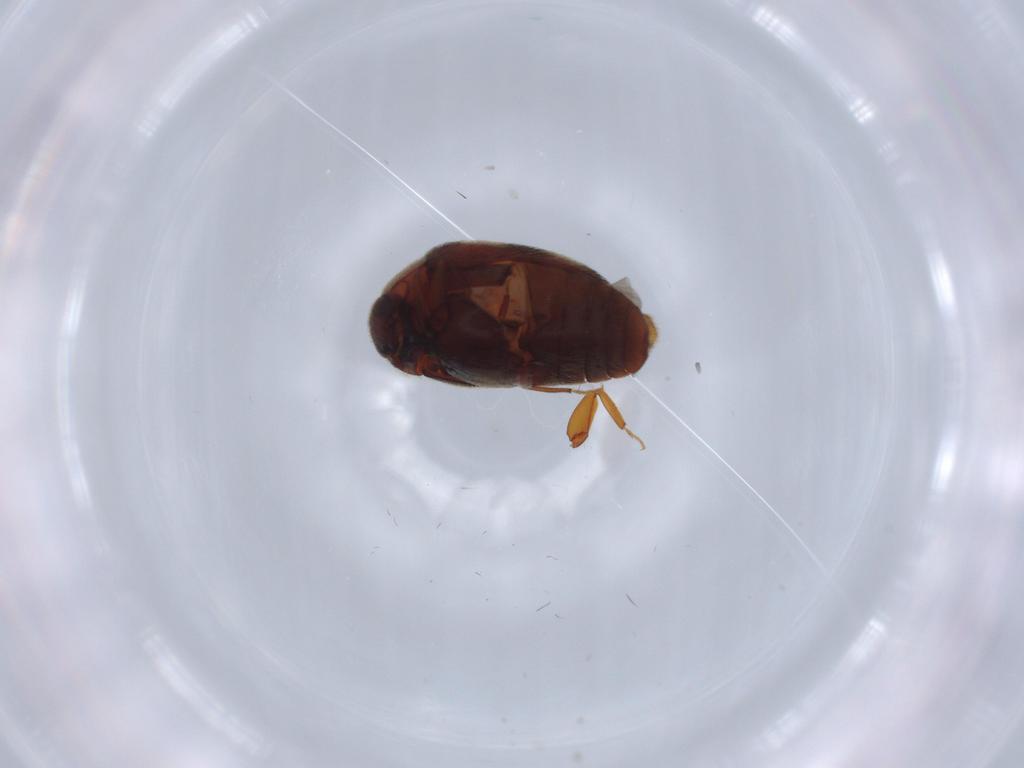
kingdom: Animalia
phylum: Arthropoda
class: Insecta
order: Coleoptera
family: Dermestidae
